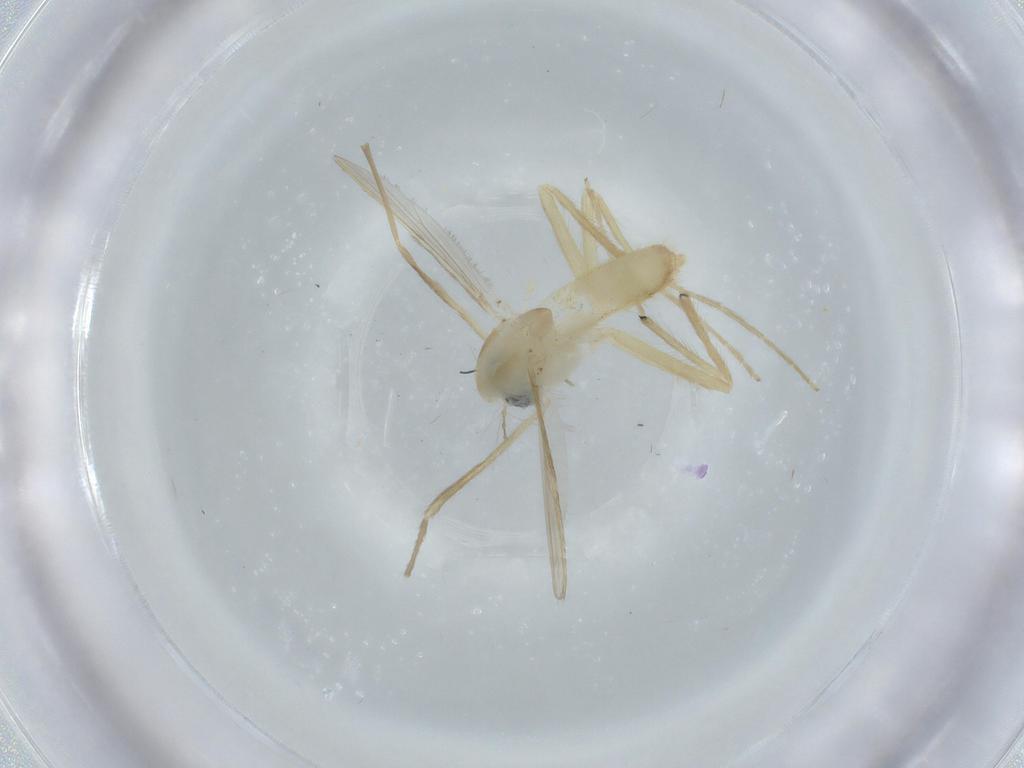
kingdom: Animalia
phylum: Arthropoda
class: Insecta
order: Diptera
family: Chironomidae
